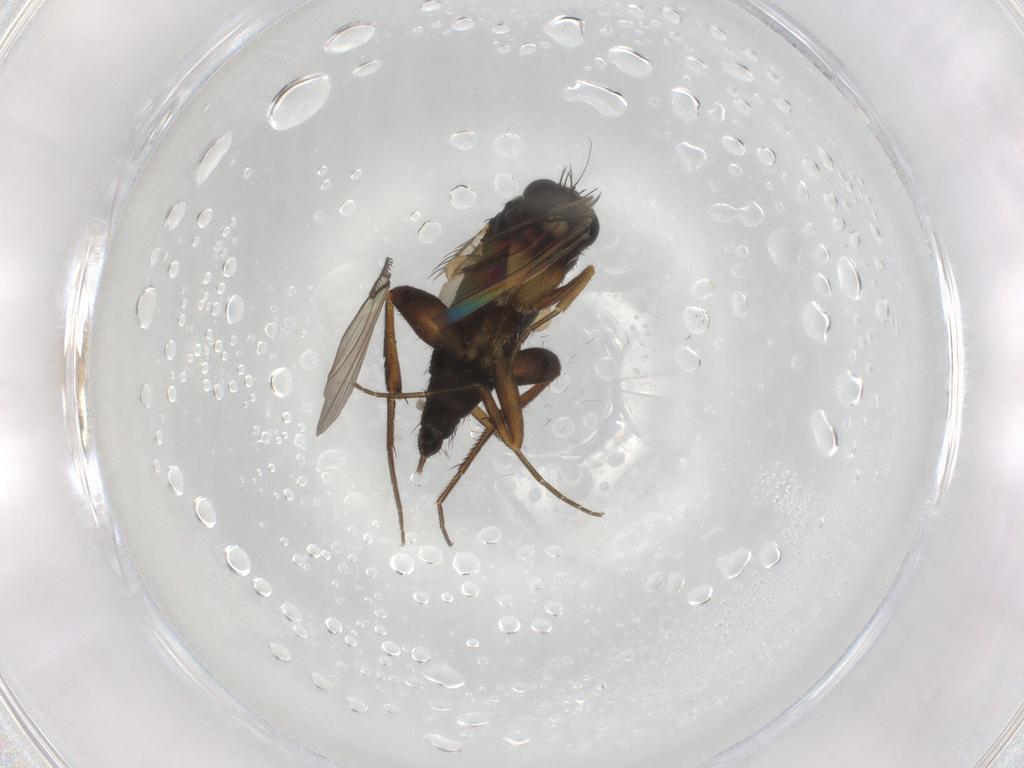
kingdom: Animalia
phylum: Arthropoda
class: Insecta
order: Diptera
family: Phoridae
